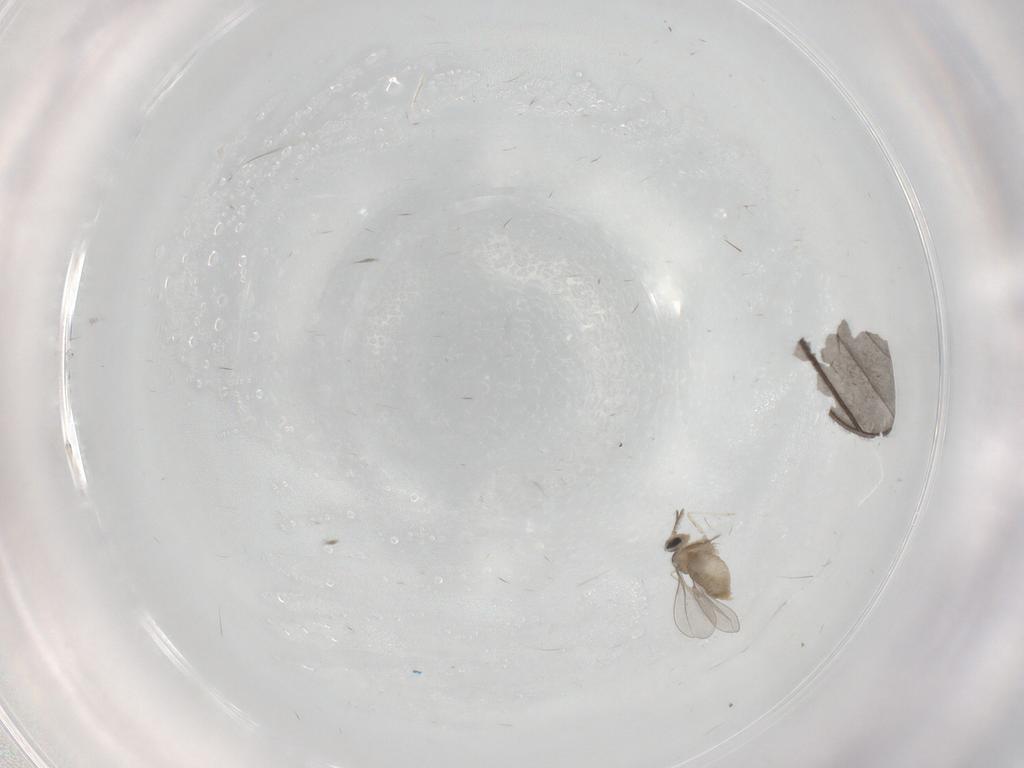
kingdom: Animalia
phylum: Arthropoda
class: Insecta
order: Diptera
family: Cecidomyiidae
